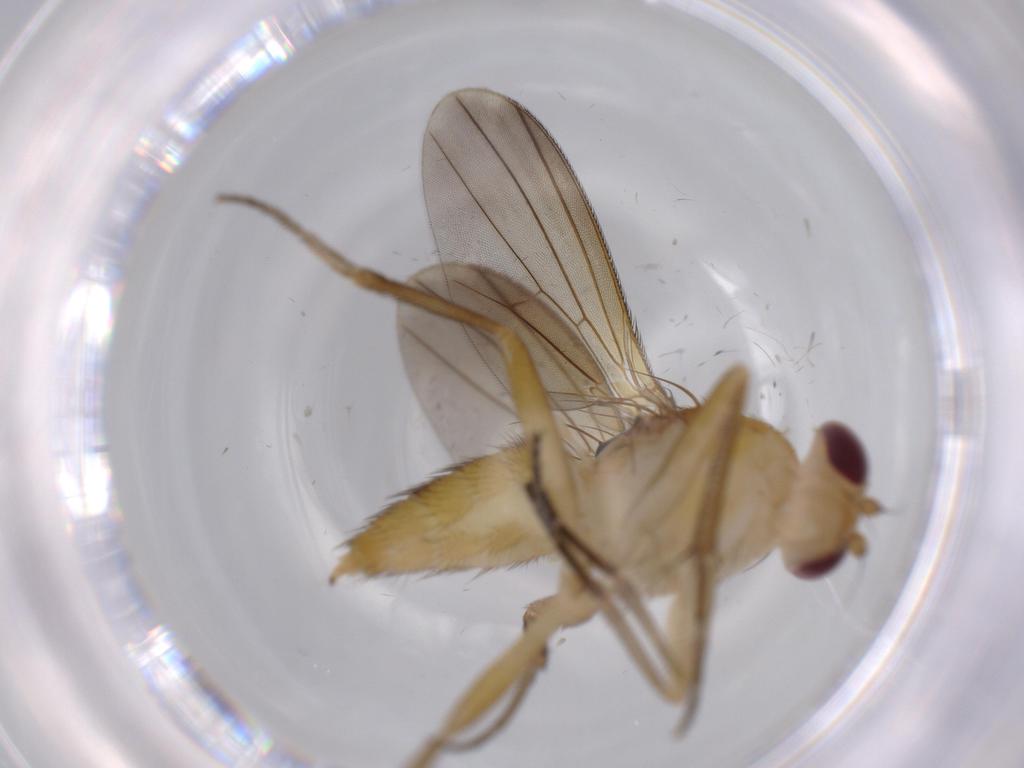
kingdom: Animalia
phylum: Arthropoda
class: Insecta
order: Diptera
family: Clusiidae
